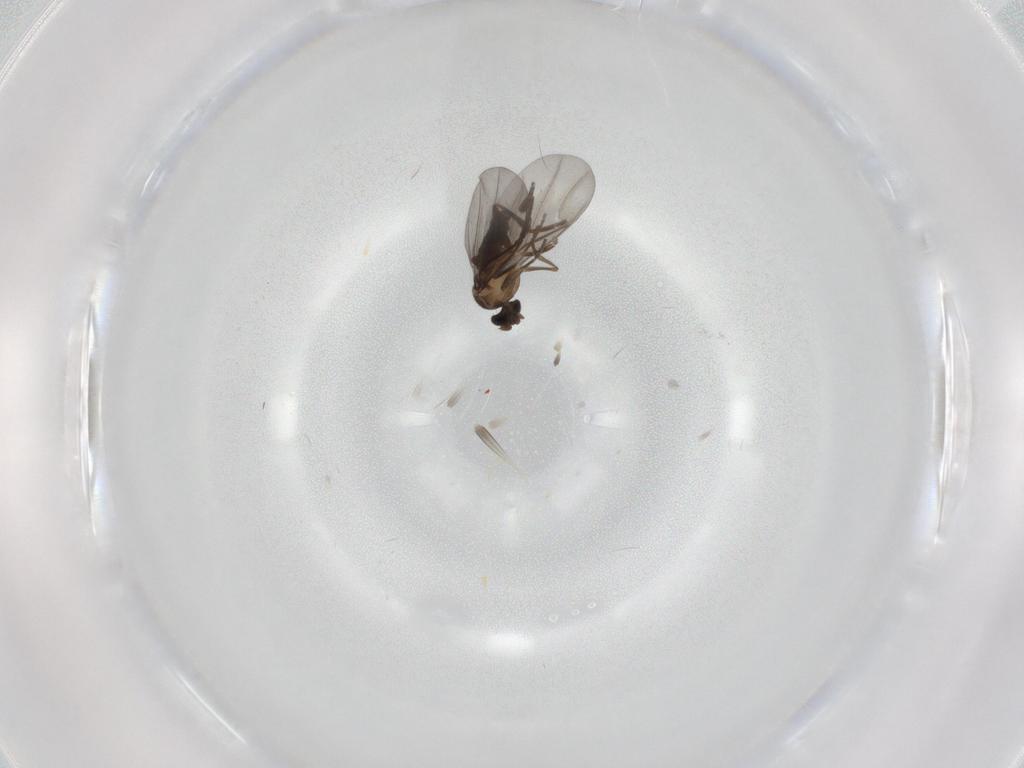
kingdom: Animalia
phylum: Arthropoda
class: Insecta
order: Diptera
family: Phoridae
